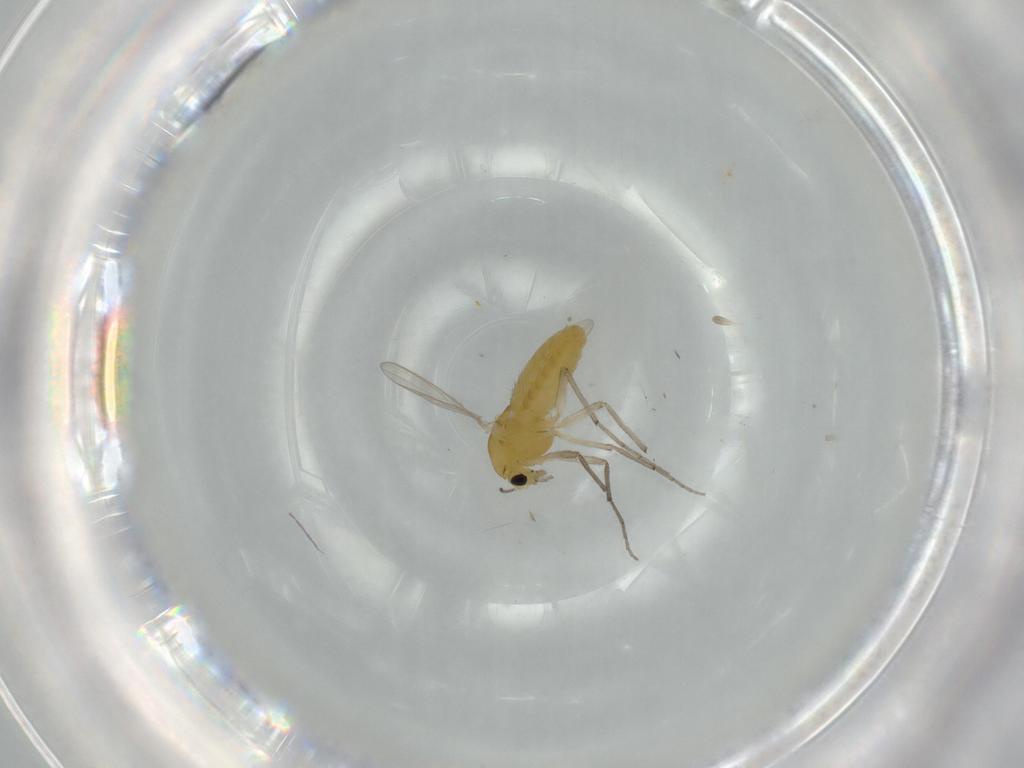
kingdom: Animalia
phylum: Arthropoda
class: Insecta
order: Diptera
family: Chironomidae
